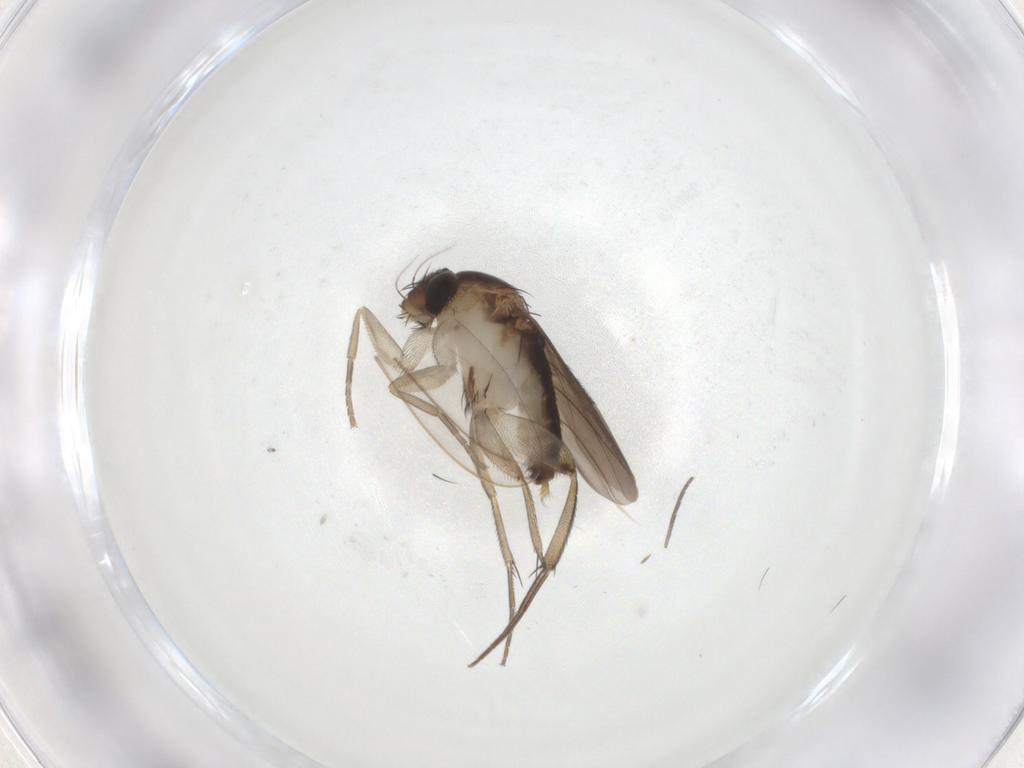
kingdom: Animalia
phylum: Arthropoda
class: Insecta
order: Diptera
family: Phoridae
